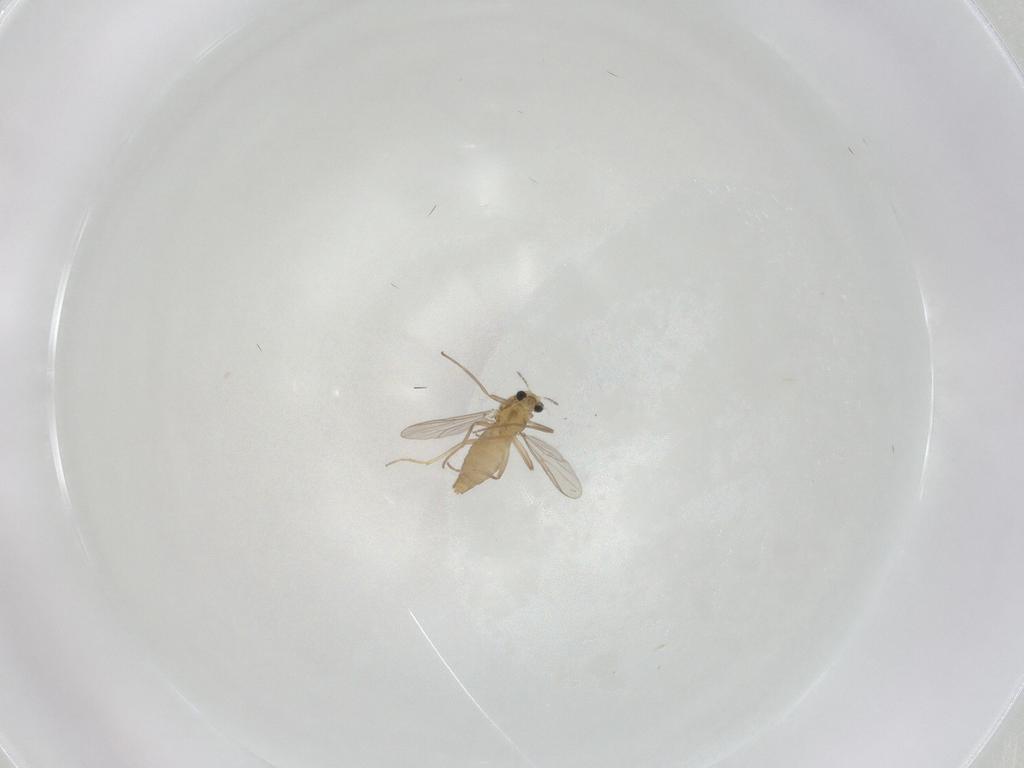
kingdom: Animalia
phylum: Arthropoda
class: Insecta
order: Diptera
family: Chironomidae
